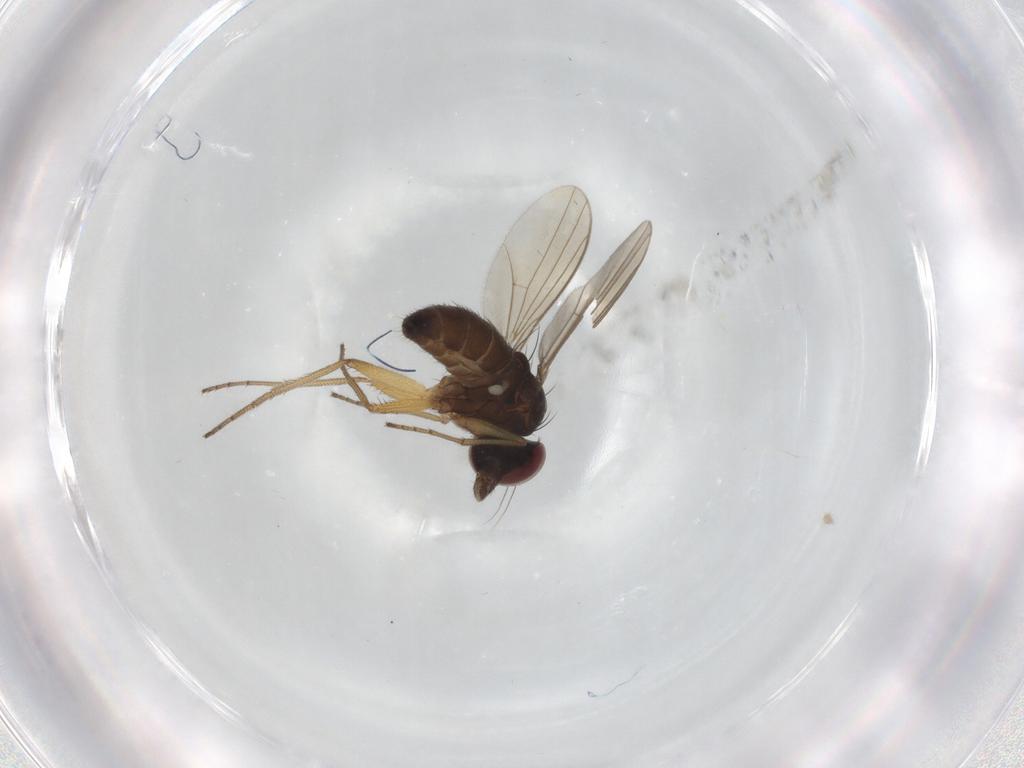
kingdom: Animalia
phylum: Arthropoda
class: Insecta
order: Diptera
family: Dolichopodidae
